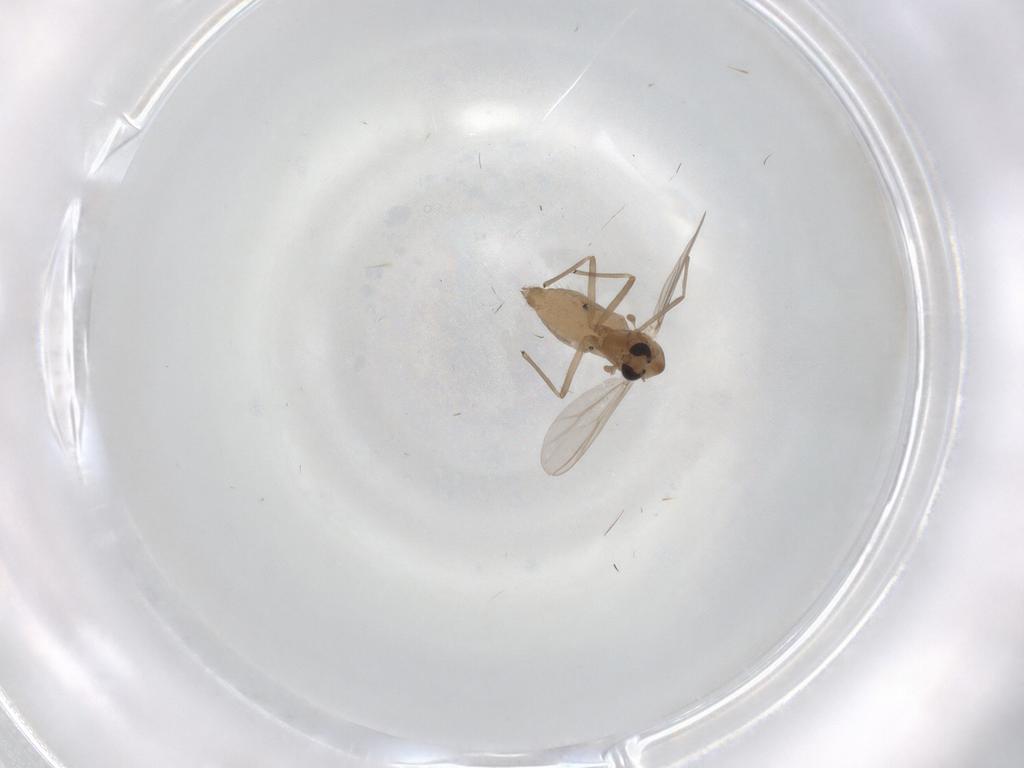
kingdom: Animalia
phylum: Arthropoda
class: Insecta
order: Diptera
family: Chironomidae
